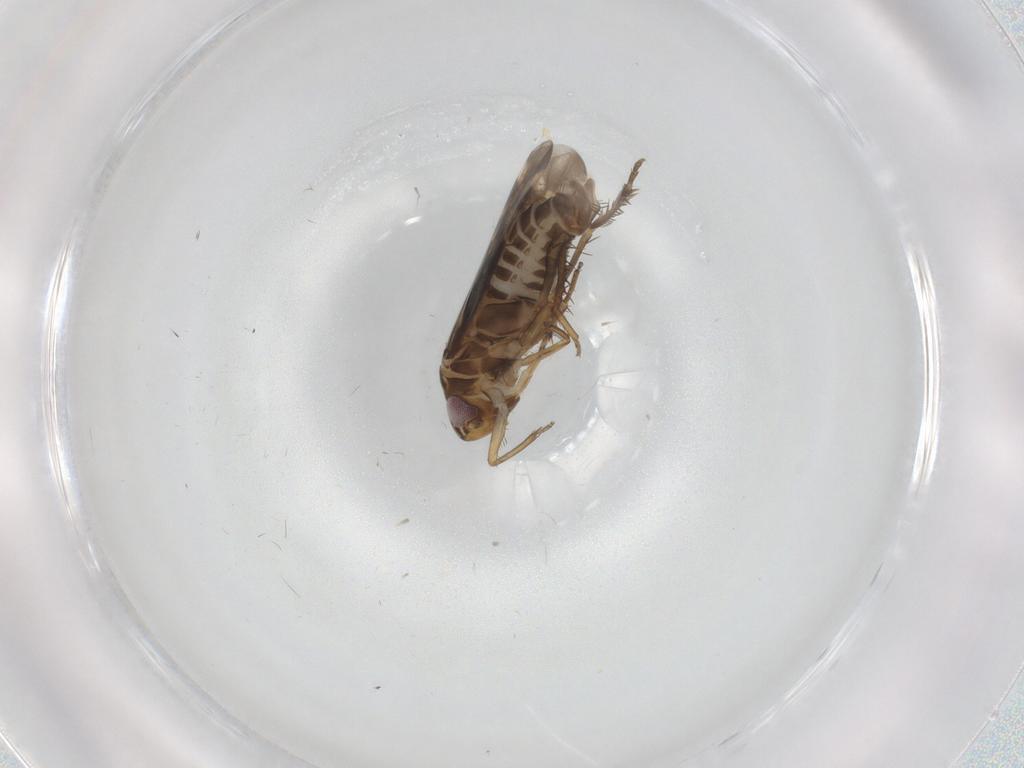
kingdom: Animalia
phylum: Arthropoda
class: Insecta
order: Hemiptera
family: Cicadellidae
